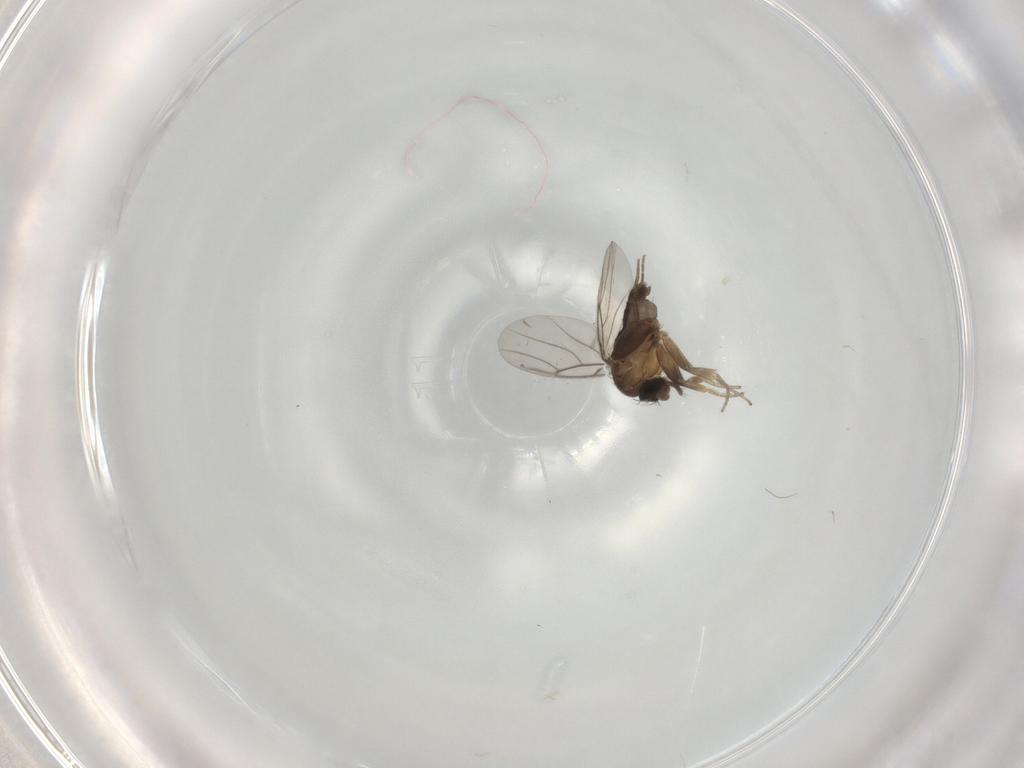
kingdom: Animalia
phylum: Arthropoda
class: Insecta
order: Diptera
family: Phoridae
